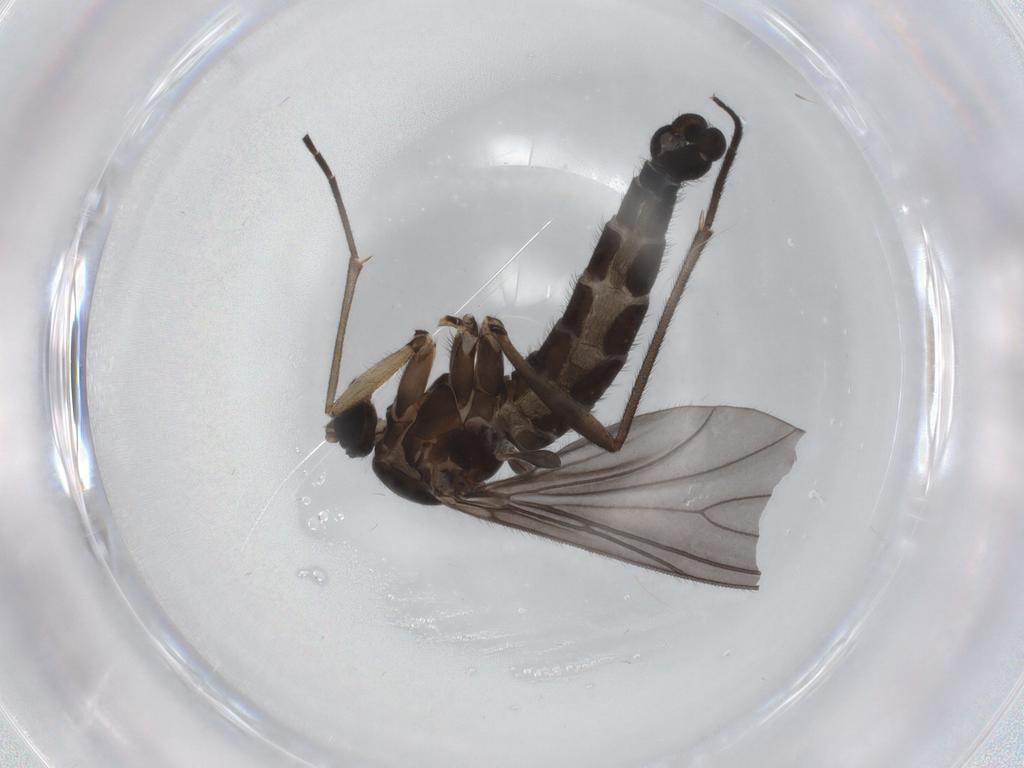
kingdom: Animalia
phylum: Arthropoda
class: Insecta
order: Diptera
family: Sciaridae
